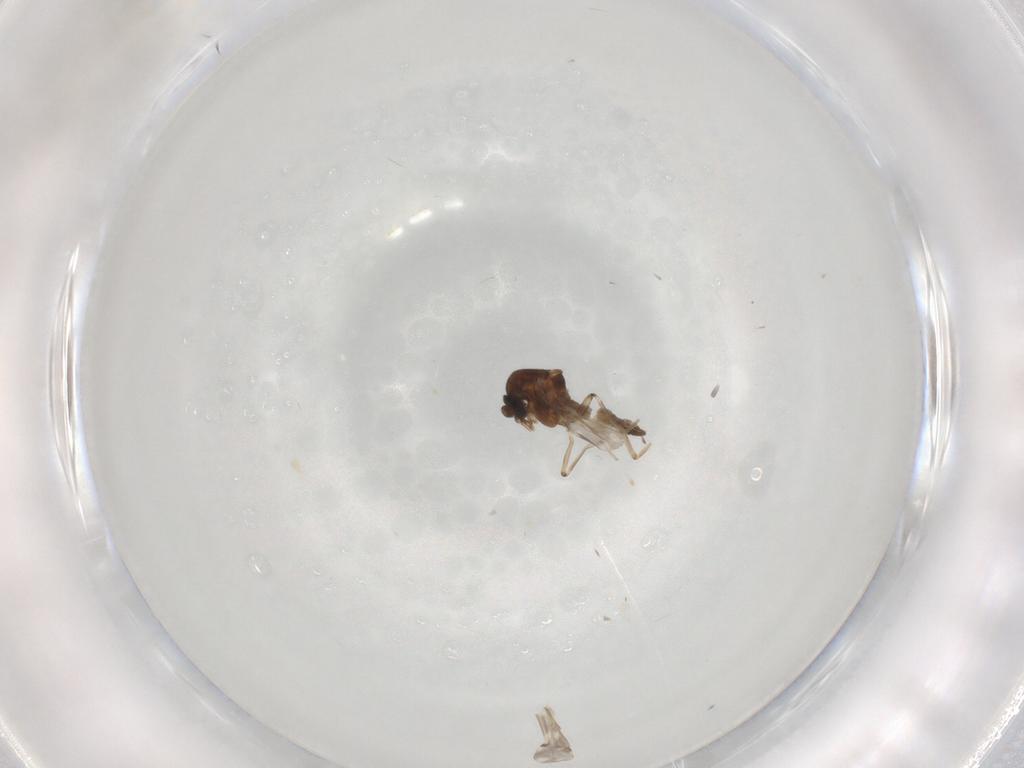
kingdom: Animalia
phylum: Arthropoda
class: Insecta
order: Diptera
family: Ceratopogonidae
